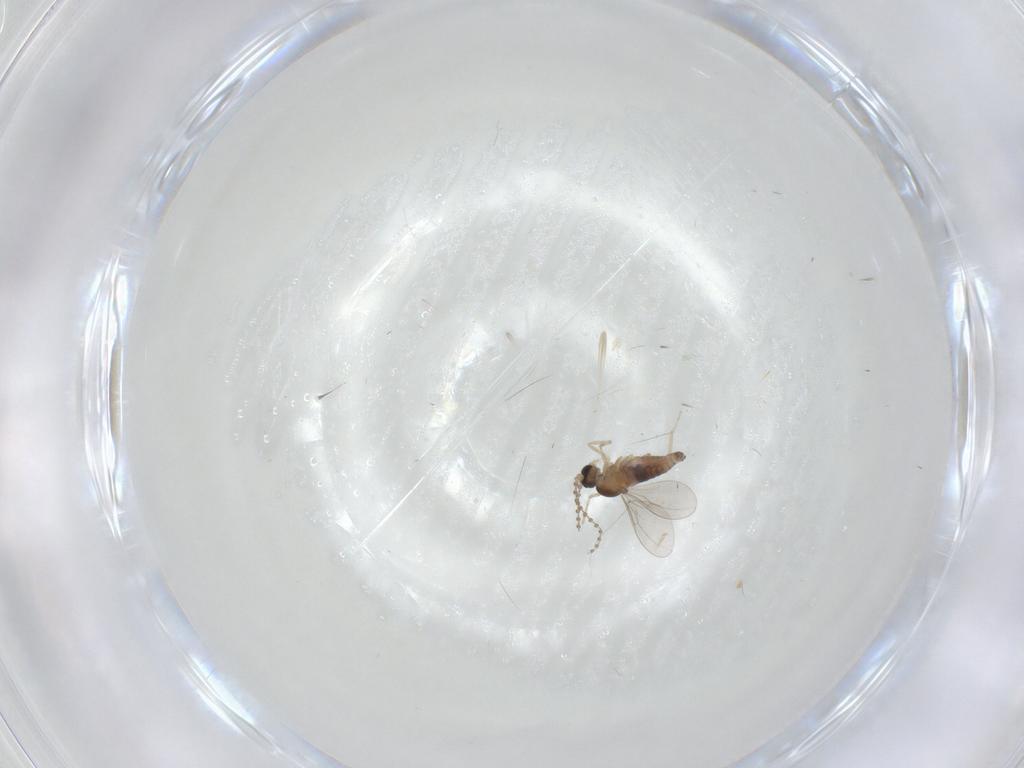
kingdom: Animalia
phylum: Arthropoda
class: Insecta
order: Diptera
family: Cecidomyiidae
